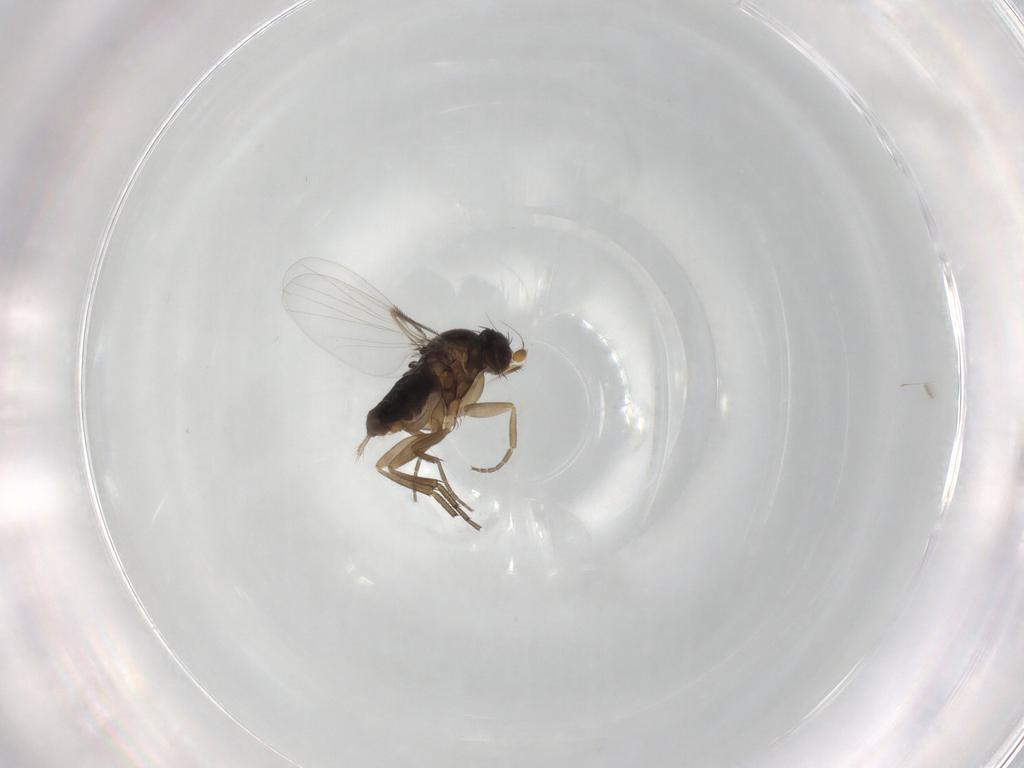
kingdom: Animalia
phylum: Arthropoda
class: Insecta
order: Diptera
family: Phoridae
